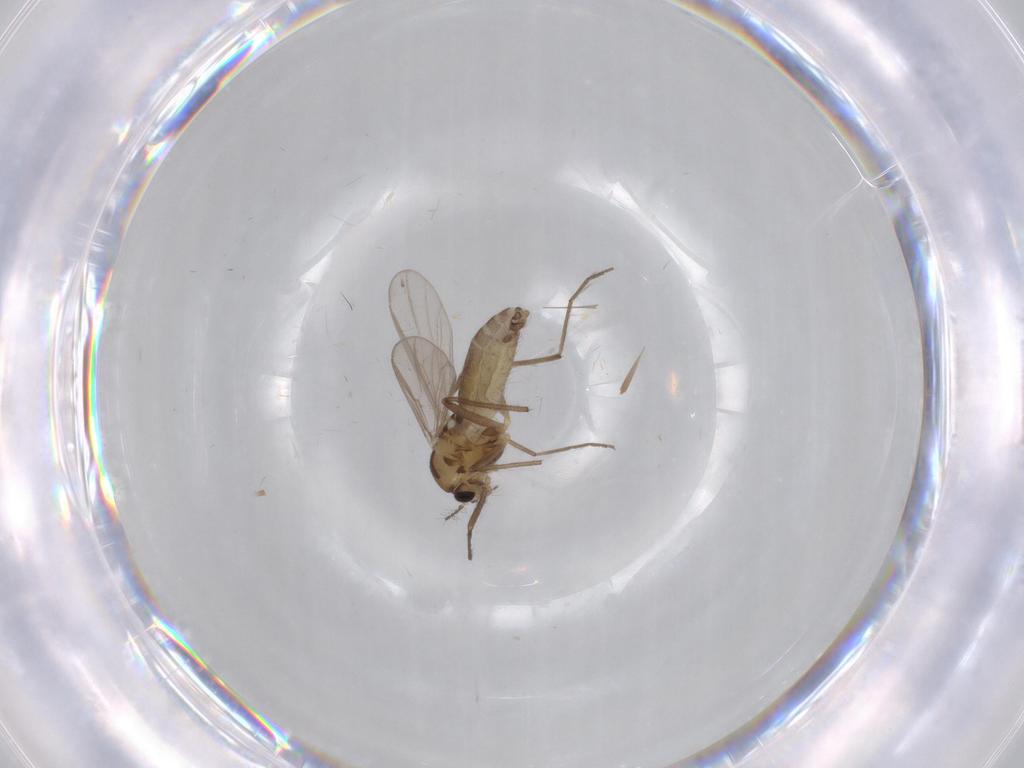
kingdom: Animalia
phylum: Arthropoda
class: Insecta
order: Diptera
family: Chironomidae
